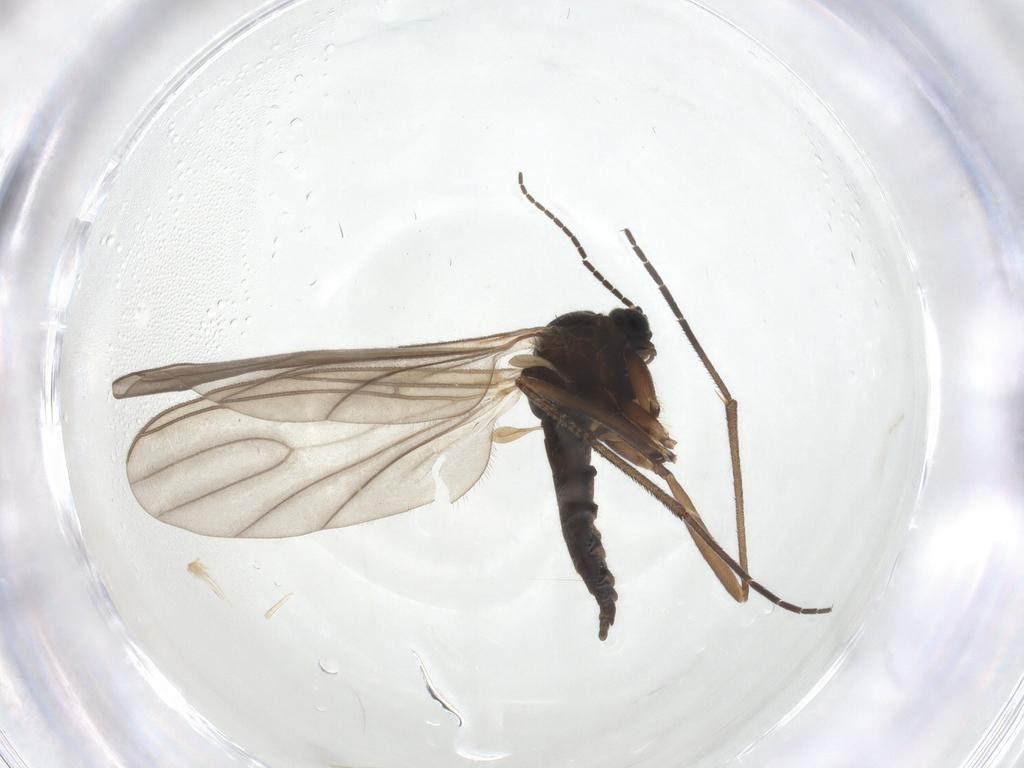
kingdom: Animalia
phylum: Arthropoda
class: Insecta
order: Diptera
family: Sciaridae
